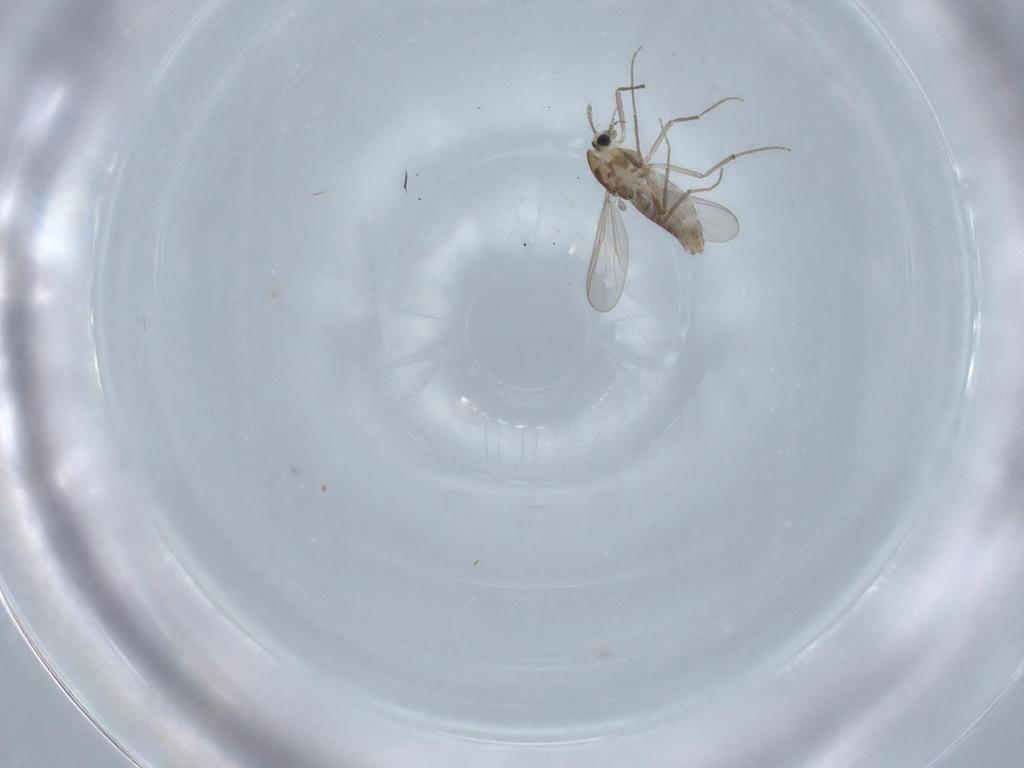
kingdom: Animalia
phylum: Arthropoda
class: Insecta
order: Diptera
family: Chironomidae
